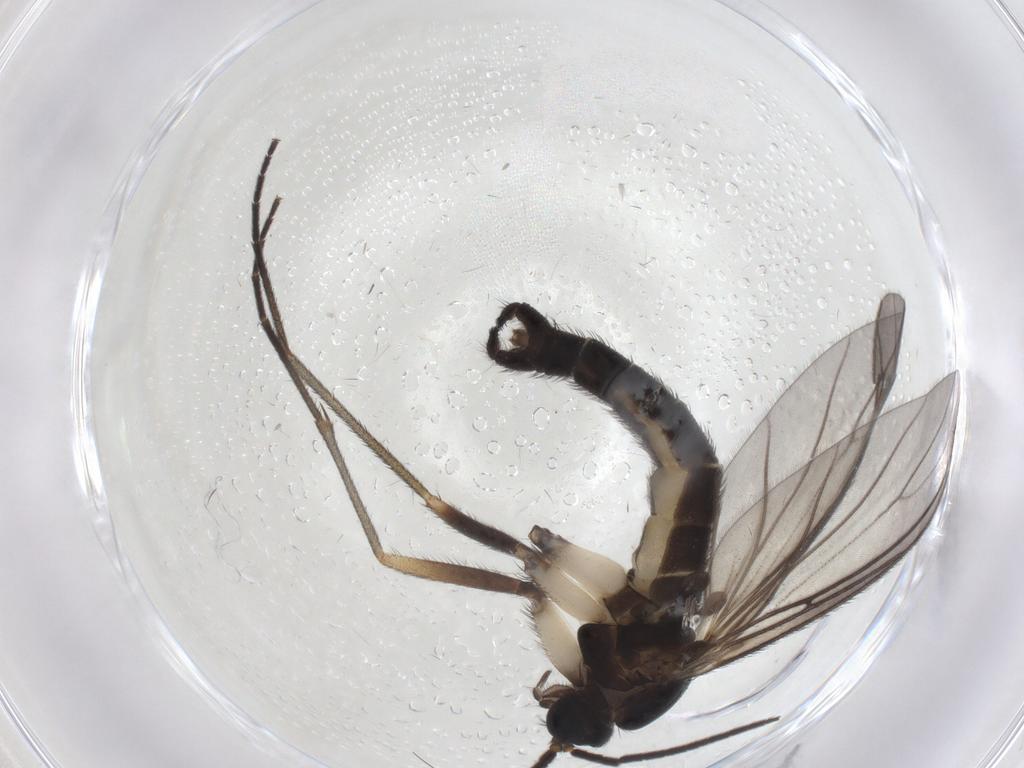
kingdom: Animalia
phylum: Arthropoda
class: Insecta
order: Diptera
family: Sciaridae
